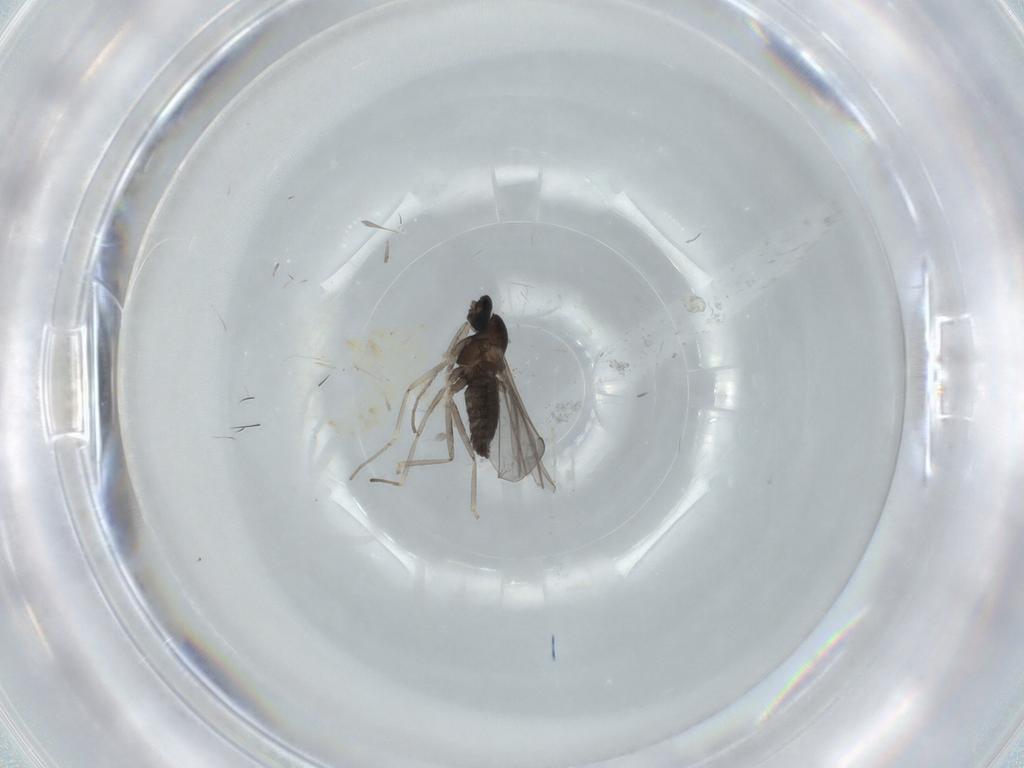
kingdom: Animalia
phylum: Arthropoda
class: Insecta
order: Diptera
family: Cecidomyiidae
